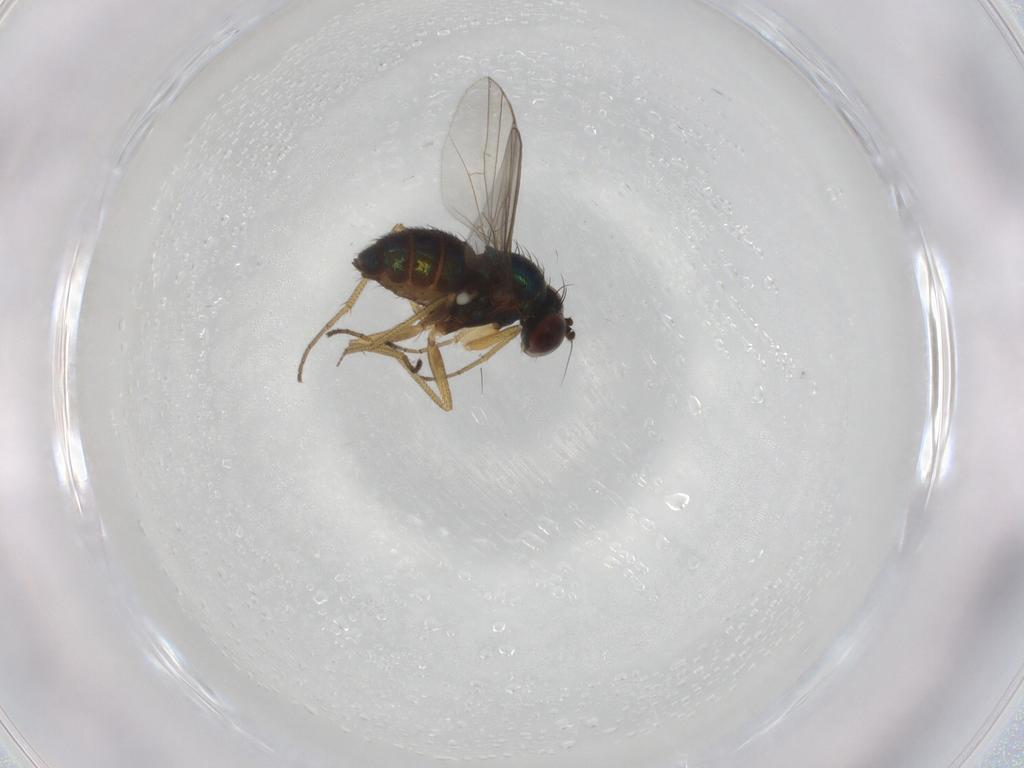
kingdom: Animalia
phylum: Arthropoda
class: Insecta
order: Diptera
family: Dolichopodidae
